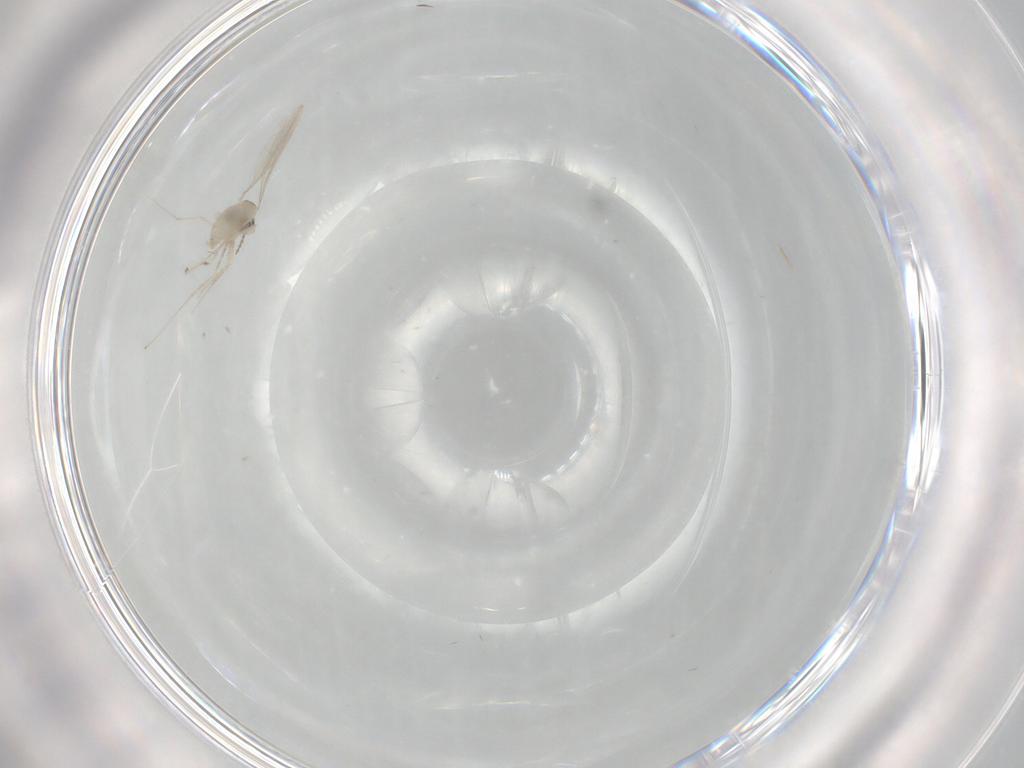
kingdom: Animalia
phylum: Arthropoda
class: Insecta
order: Diptera
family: Cecidomyiidae
